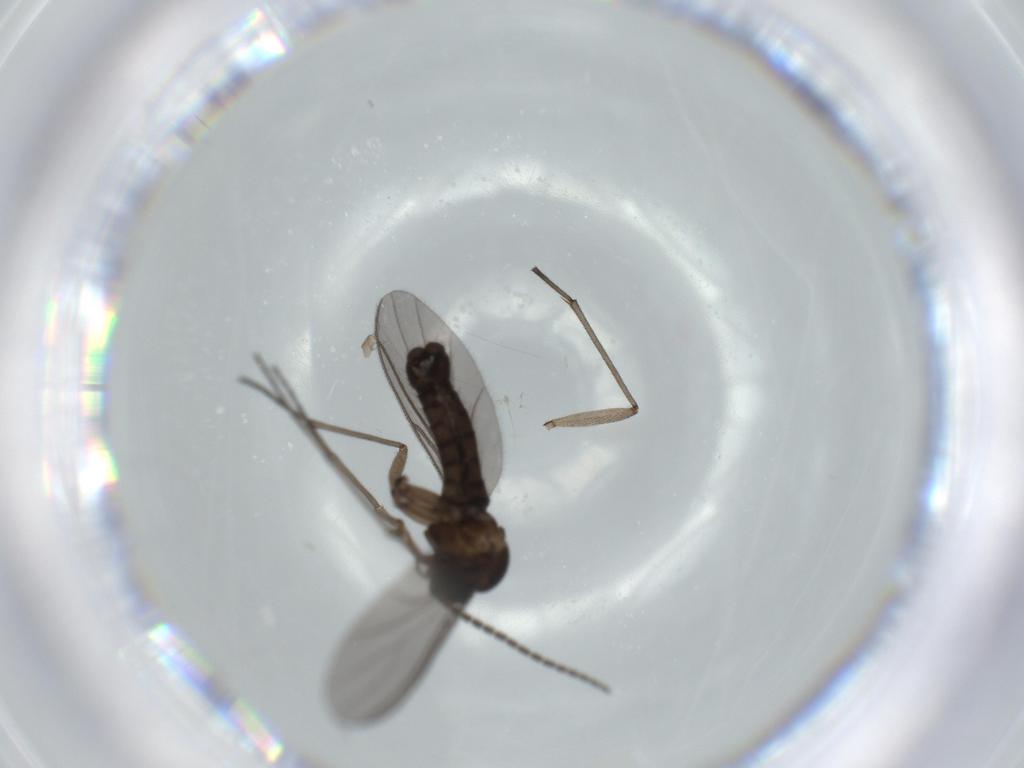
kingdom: Animalia
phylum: Arthropoda
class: Insecta
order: Diptera
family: Sciaridae
